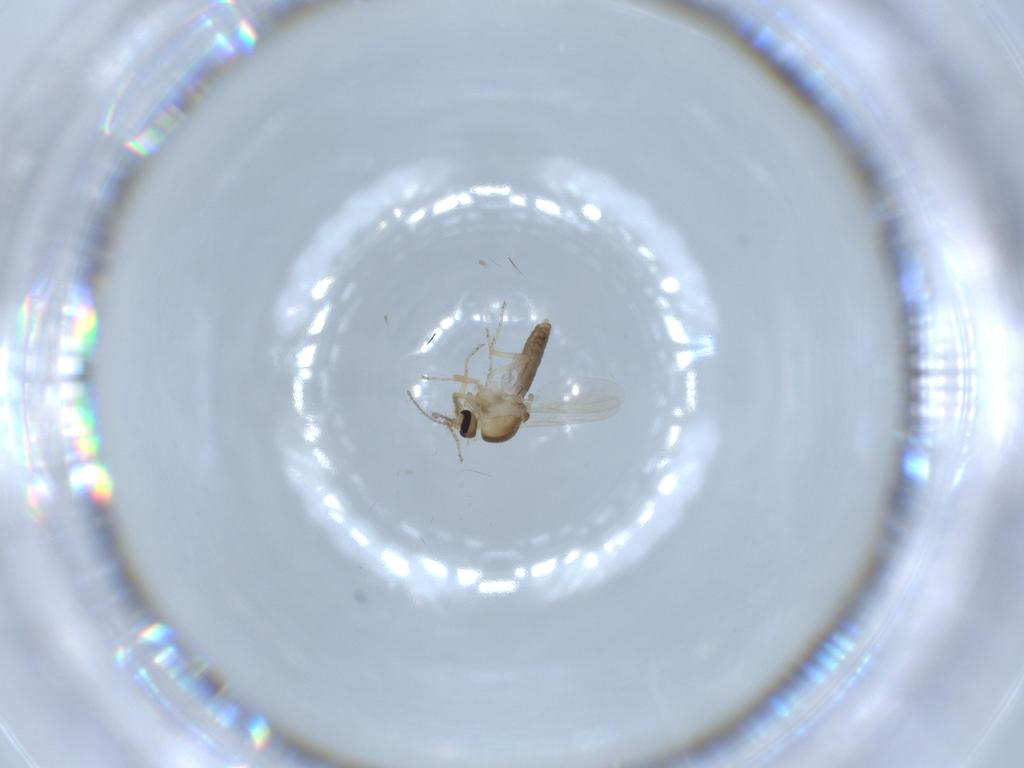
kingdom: Animalia
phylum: Arthropoda
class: Insecta
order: Diptera
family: Ceratopogonidae
